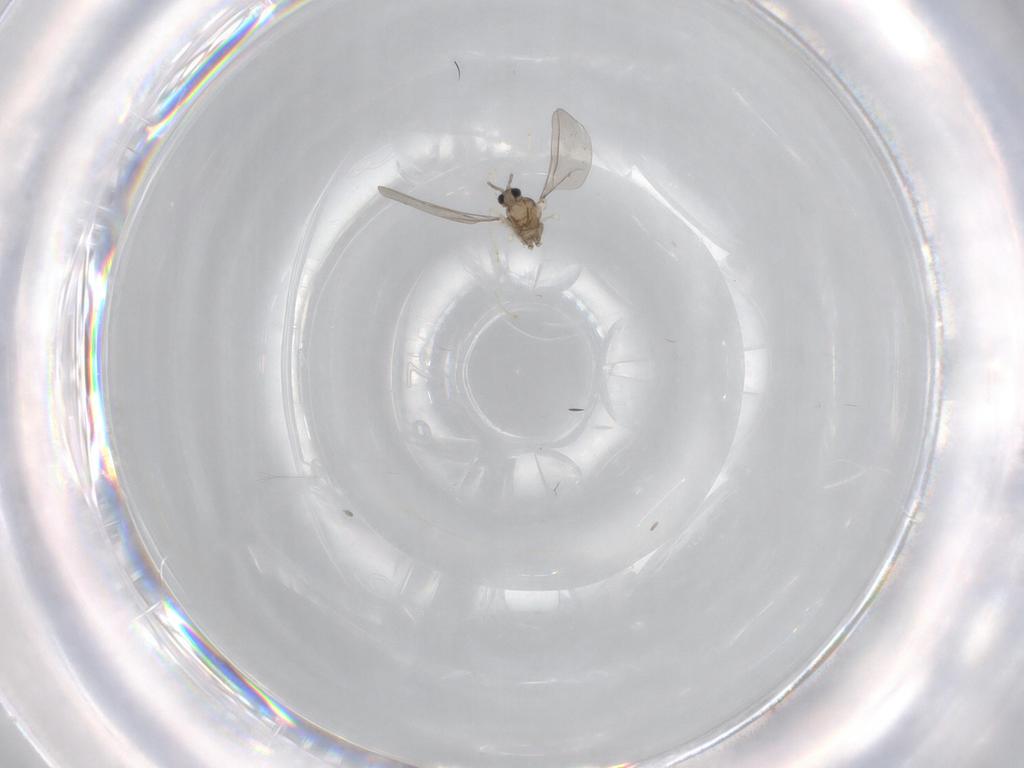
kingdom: Animalia
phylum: Arthropoda
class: Insecta
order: Diptera
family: Cecidomyiidae
